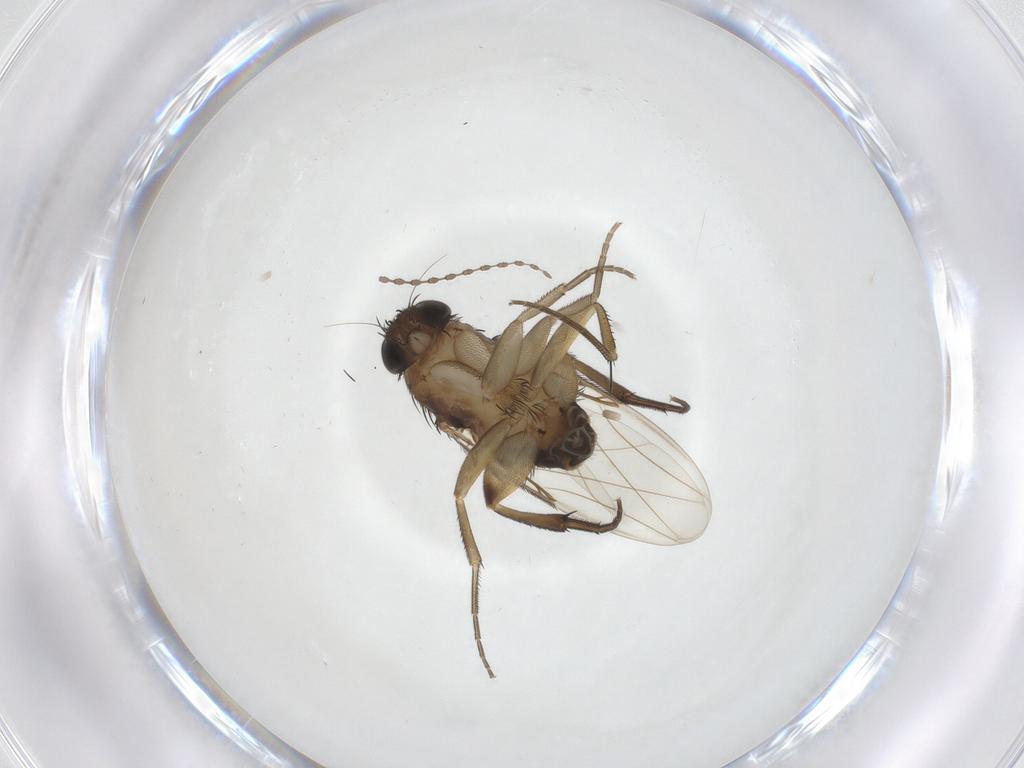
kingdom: Animalia
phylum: Arthropoda
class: Insecta
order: Diptera
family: Phoridae
